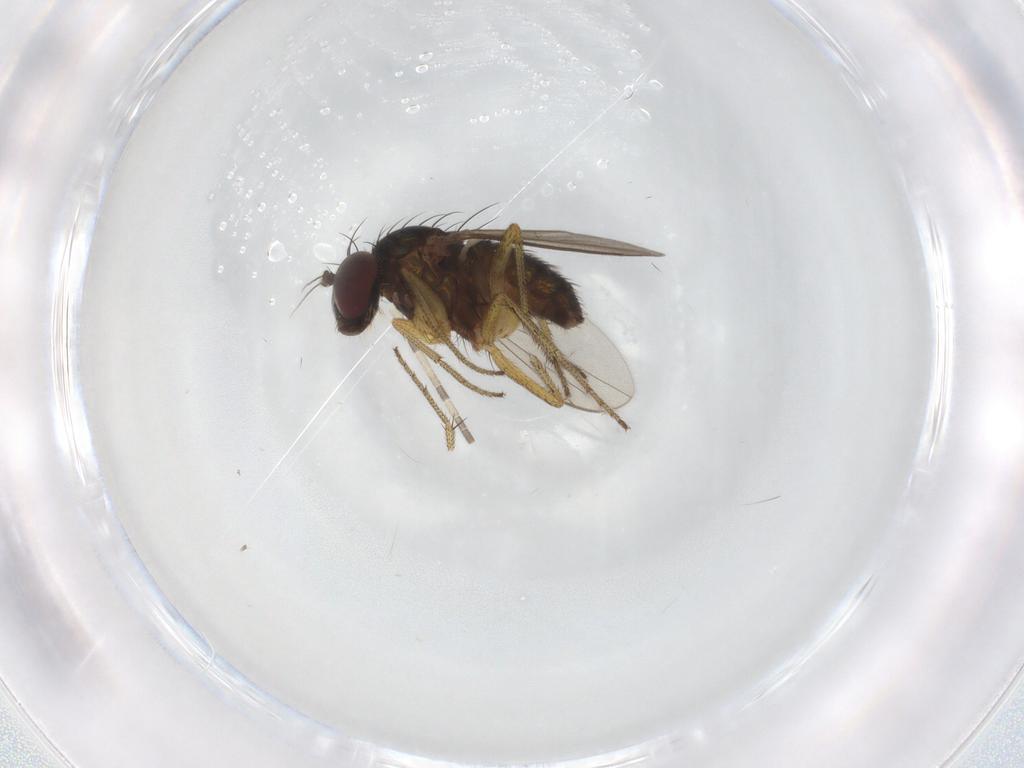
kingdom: Animalia
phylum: Arthropoda
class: Insecta
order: Diptera
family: Dolichopodidae
